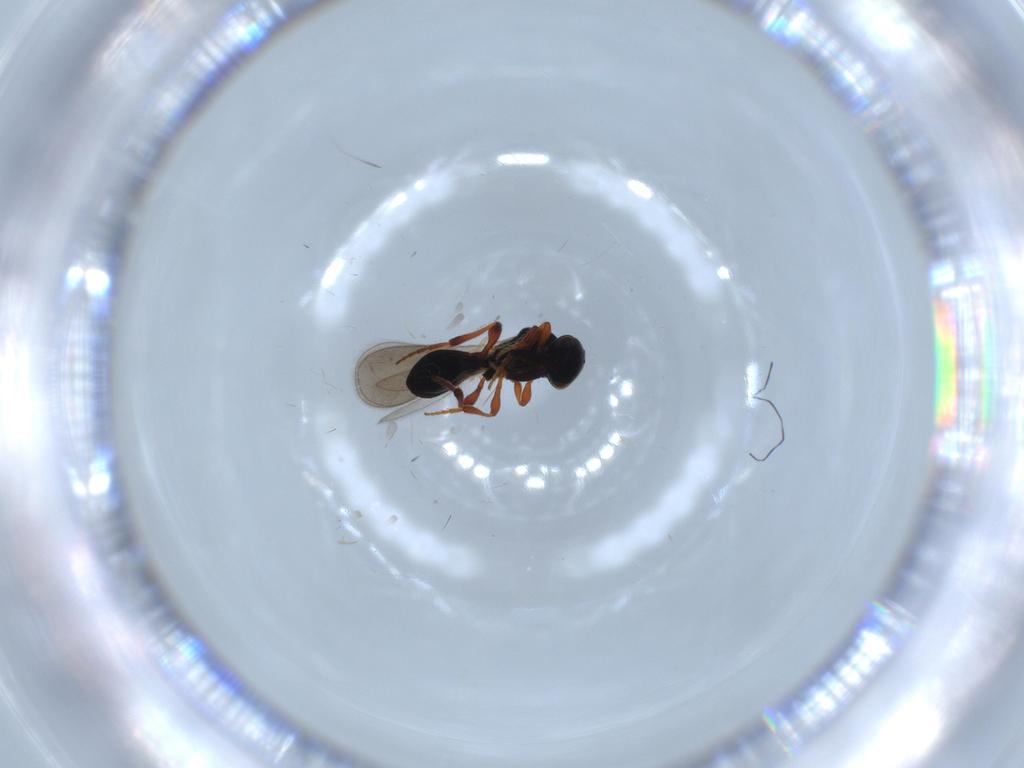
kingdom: Animalia
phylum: Arthropoda
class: Insecta
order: Hymenoptera
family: Platygastridae
